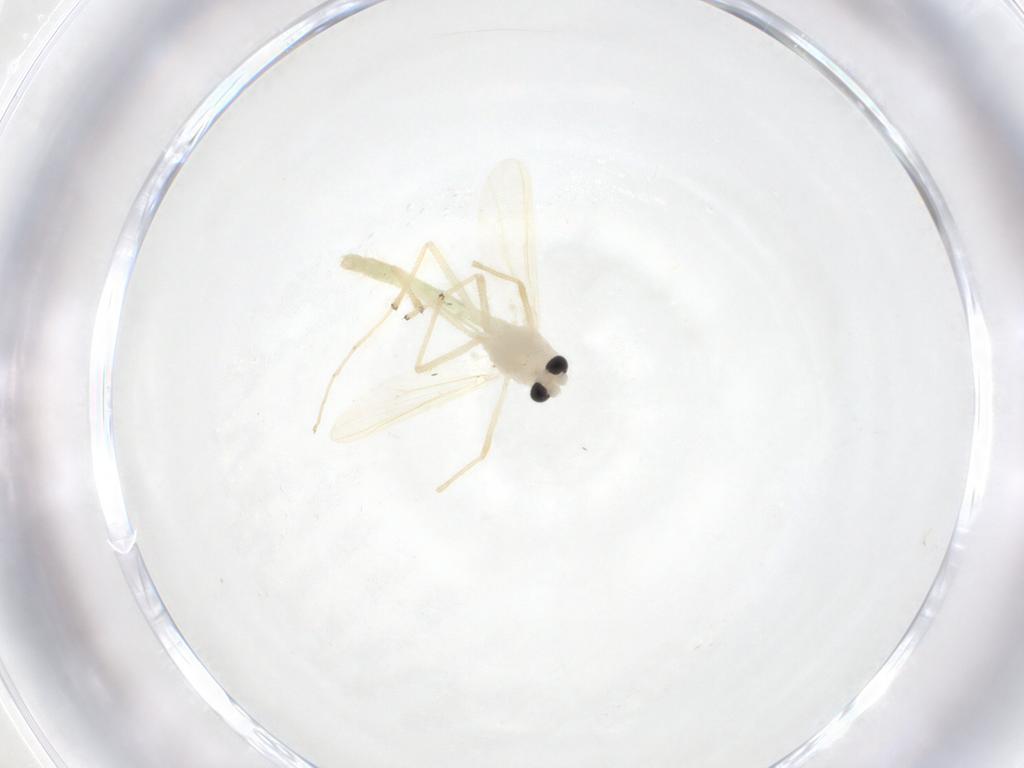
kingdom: Animalia
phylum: Arthropoda
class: Insecta
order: Diptera
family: Chironomidae
